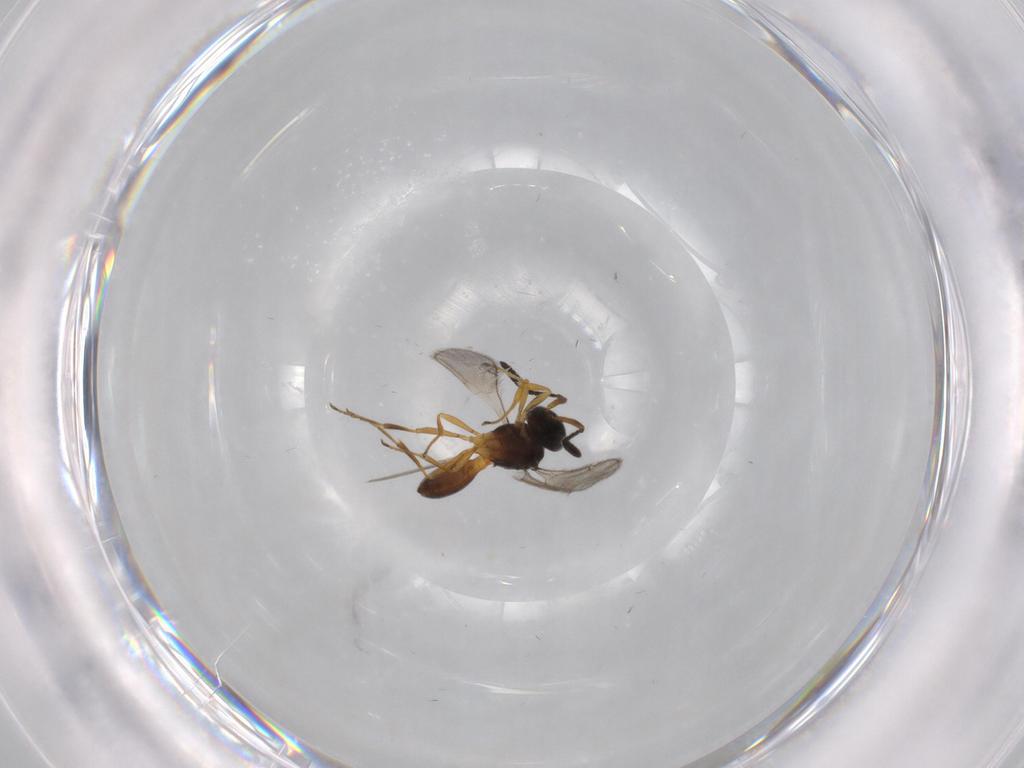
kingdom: Animalia
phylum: Arthropoda
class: Insecta
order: Hymenoptera
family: Scelionidae
